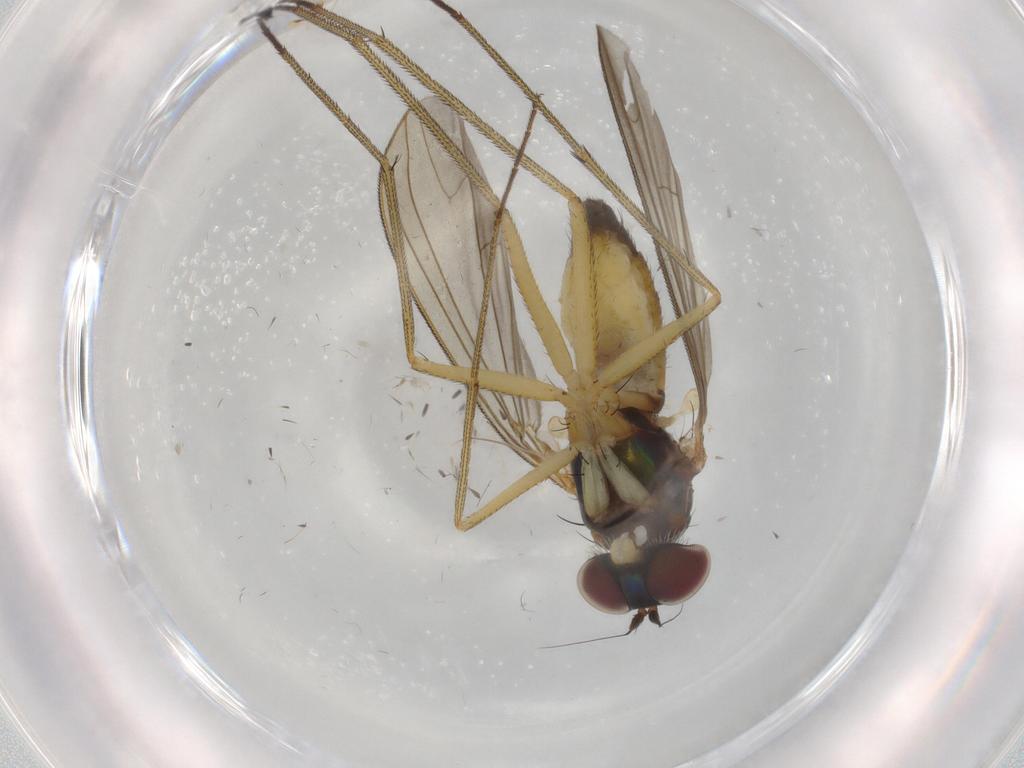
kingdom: Animalia
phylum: Arthropoda
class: Insecta
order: Diptera
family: Dolichopodidae
